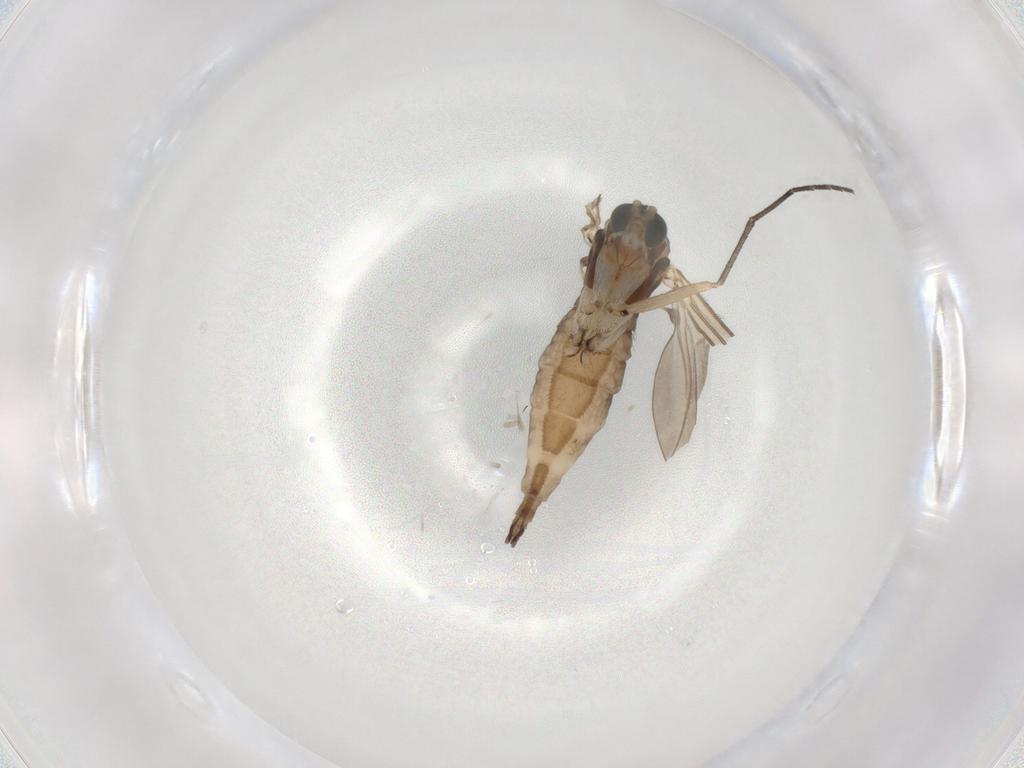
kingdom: Animalia
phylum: Arthropoda
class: Insecta
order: Diptera
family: Sciaridae
